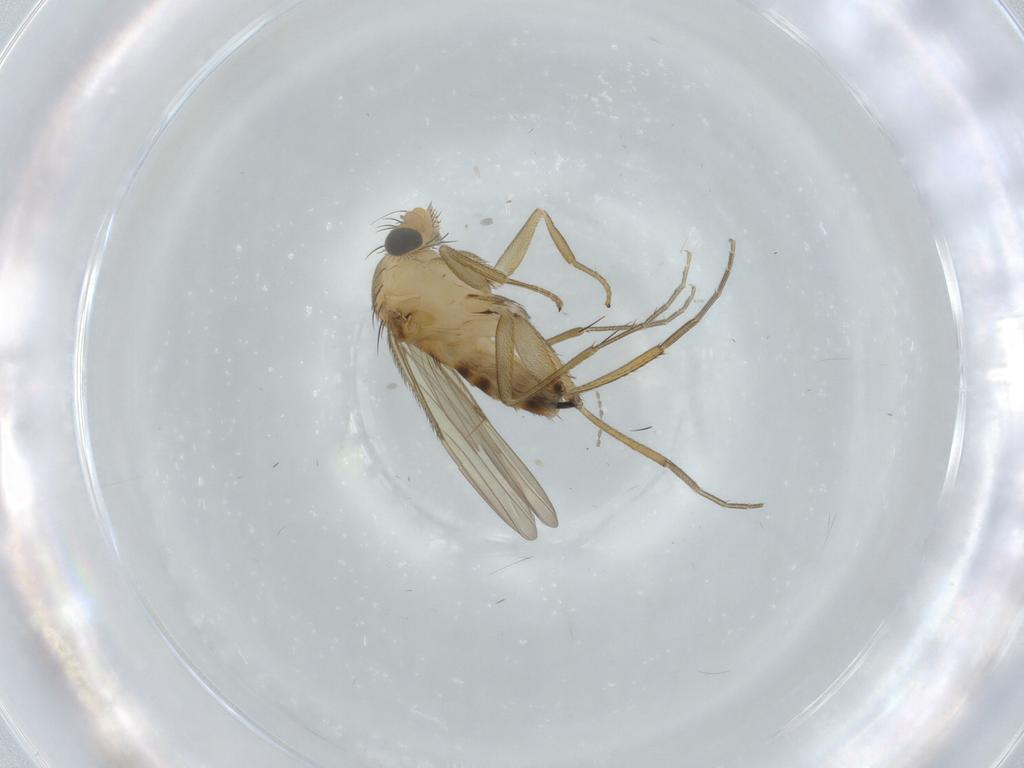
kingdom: Animalia
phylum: Arthropoda
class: Insecta
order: Diptera
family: Phoridae
